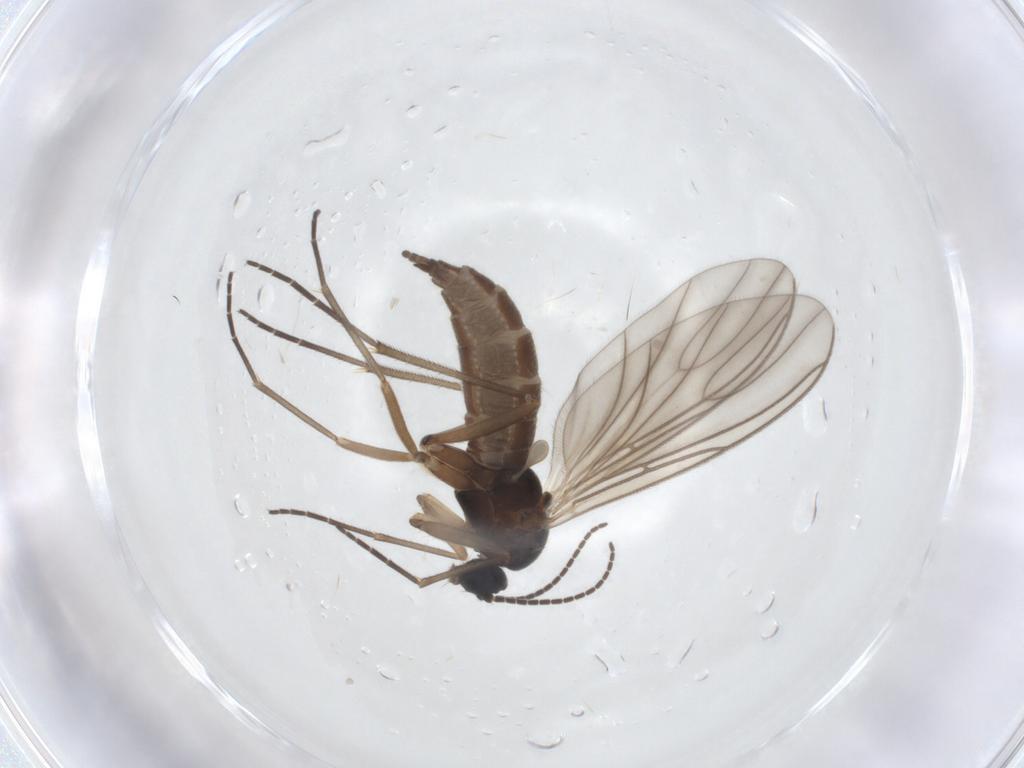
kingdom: Animalia
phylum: Arthropoda
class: Insecta
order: Diptera
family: Sciaridae
